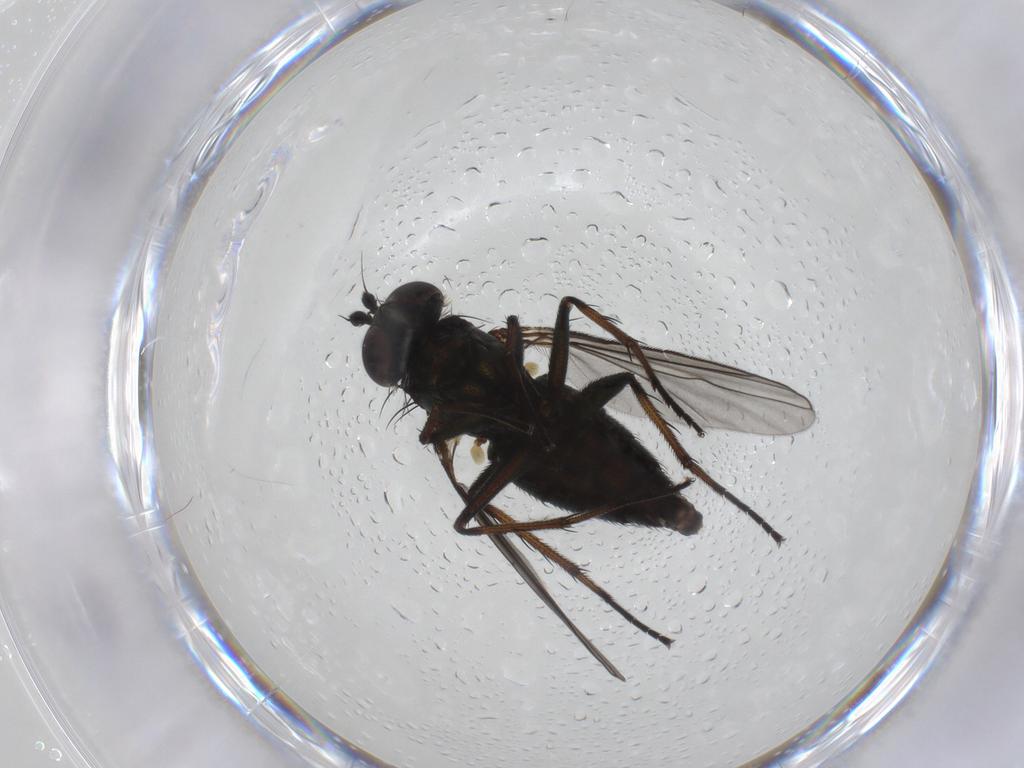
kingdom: Animalia
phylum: Arthropoda
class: Insecta
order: Diptera
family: Dolichopodidae
